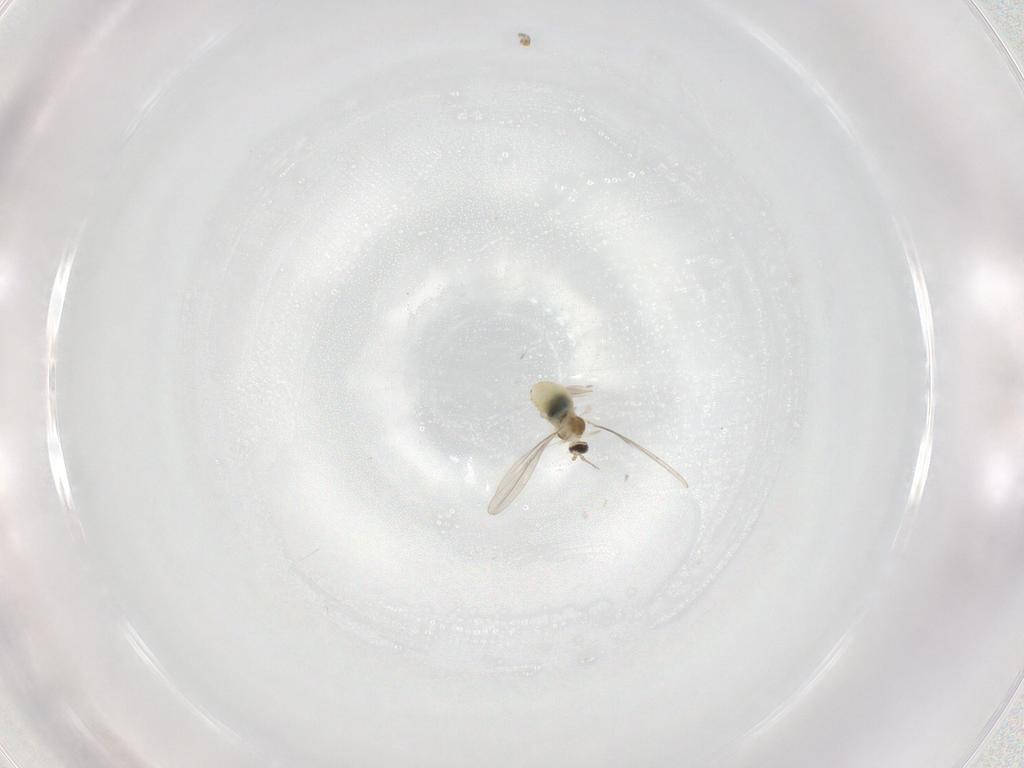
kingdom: Animalia
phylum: Arthropoda
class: Insecta
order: Diptera
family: Cecidomyiidae
